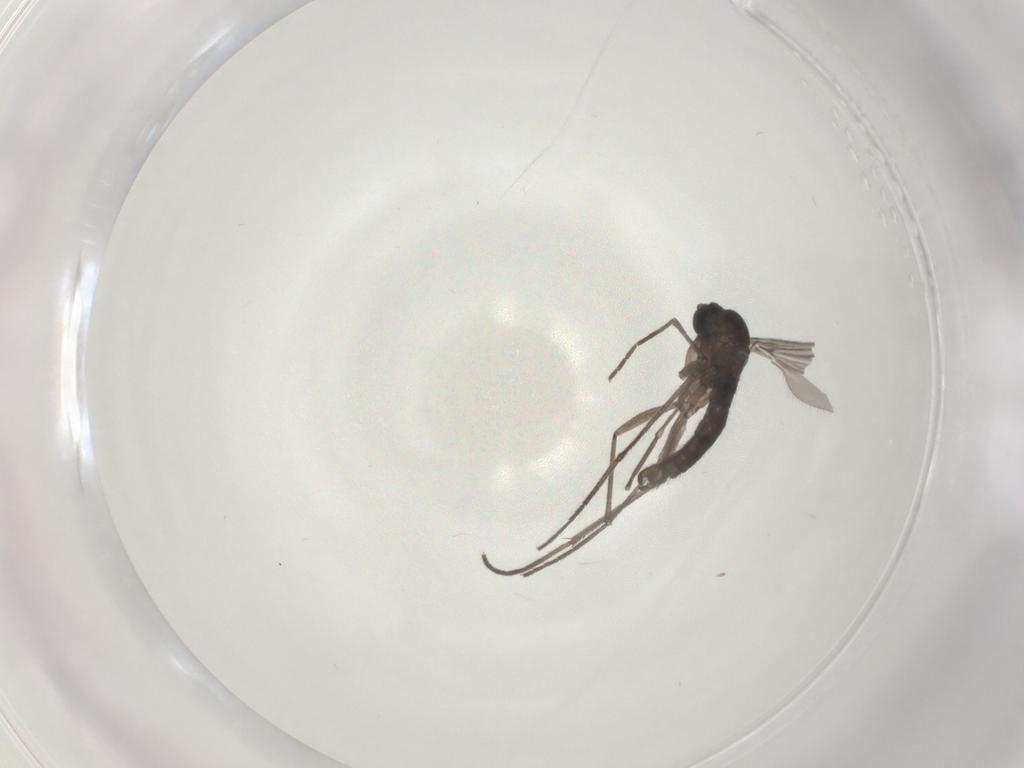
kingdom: Animalia
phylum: Arthropoda
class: Insecta
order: Diptera
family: Sciaridae
